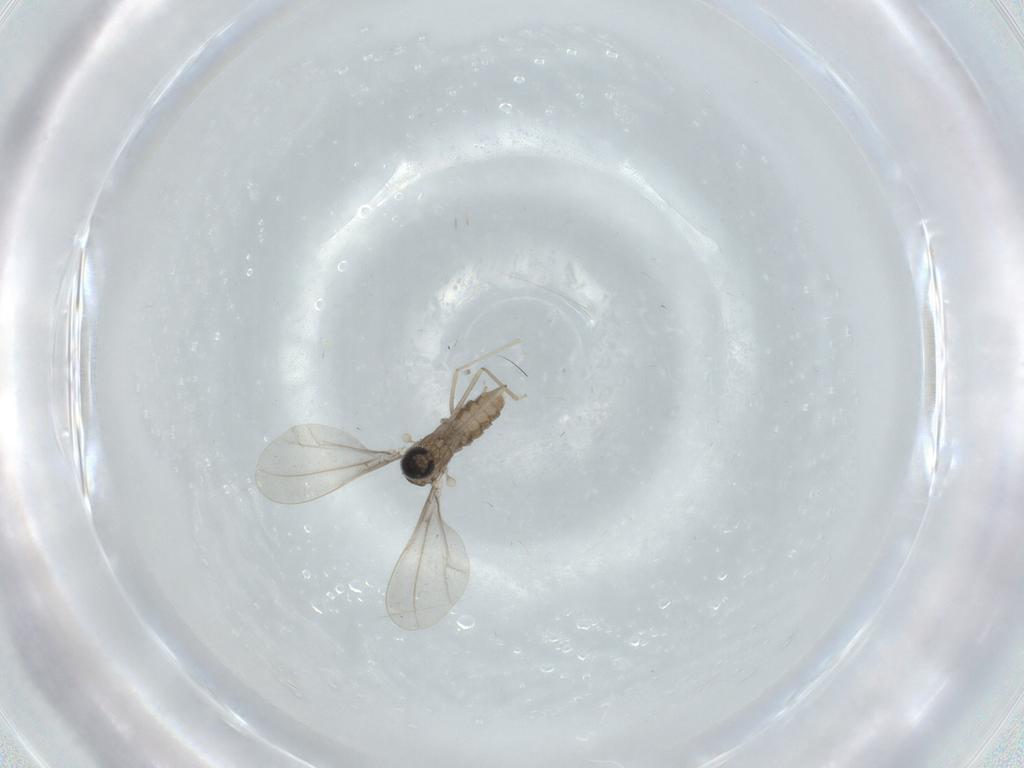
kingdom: Animalia
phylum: Arthropoda
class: Insecta
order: Diptera
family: Cecidomyiidae
